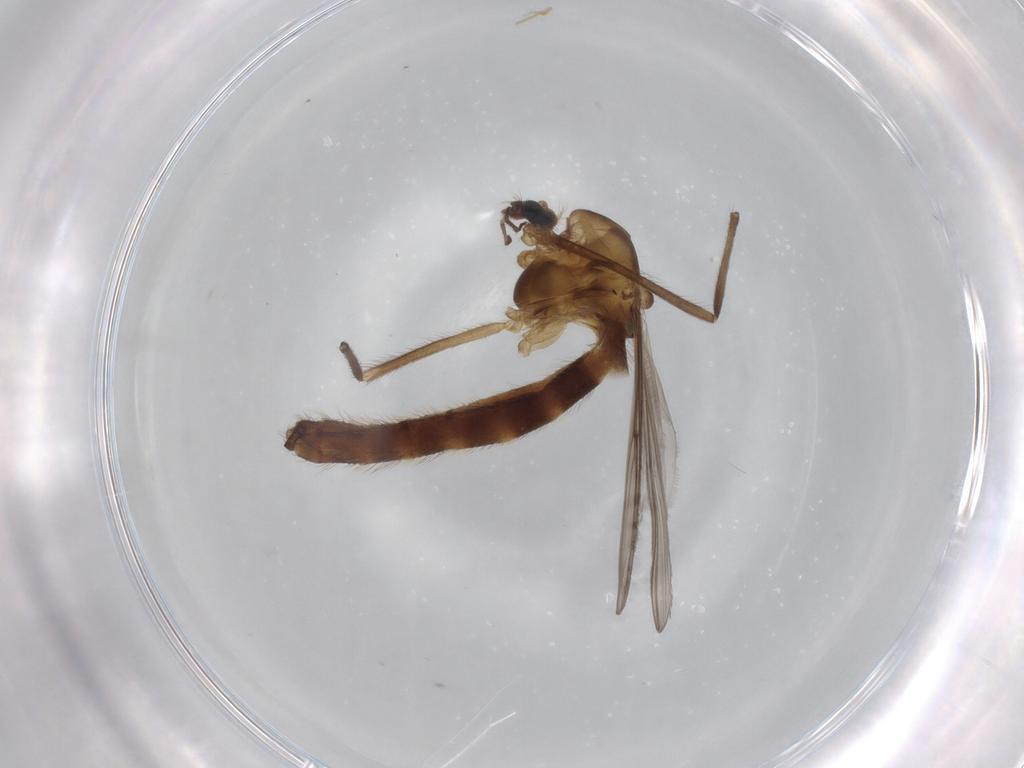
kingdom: Animalia
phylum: Arthropoda
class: Insecta
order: Diptera
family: Chironomidae
